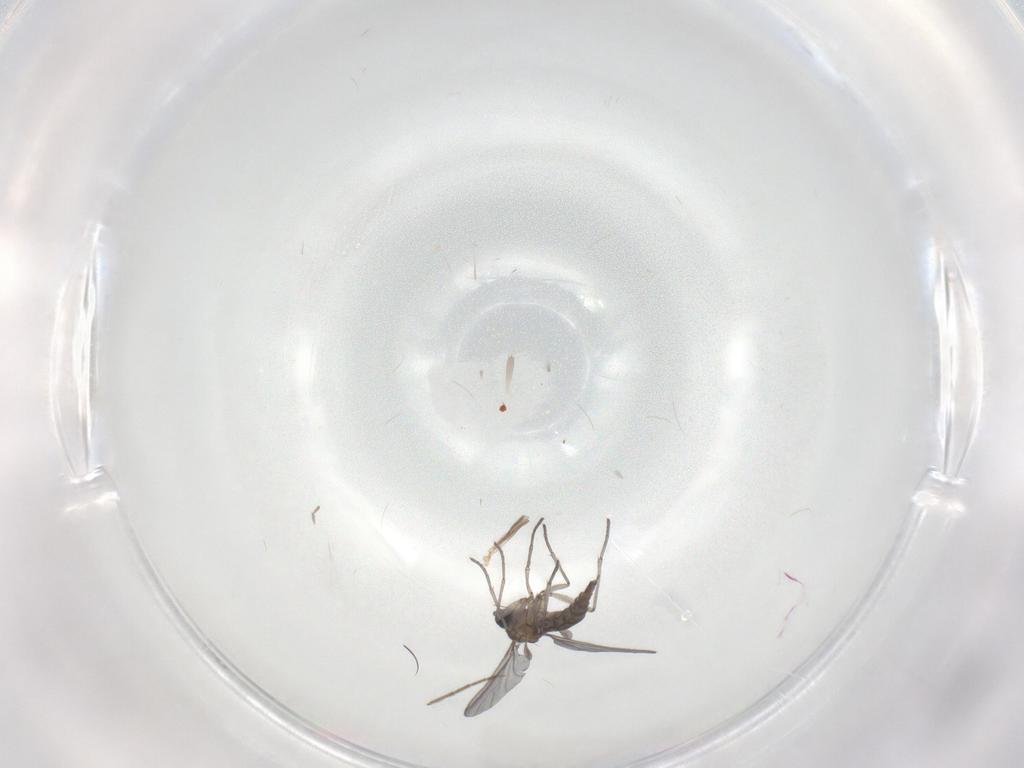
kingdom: Animalia
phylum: Arthropoda
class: Insecta
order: Diptera
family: Chironomidae
